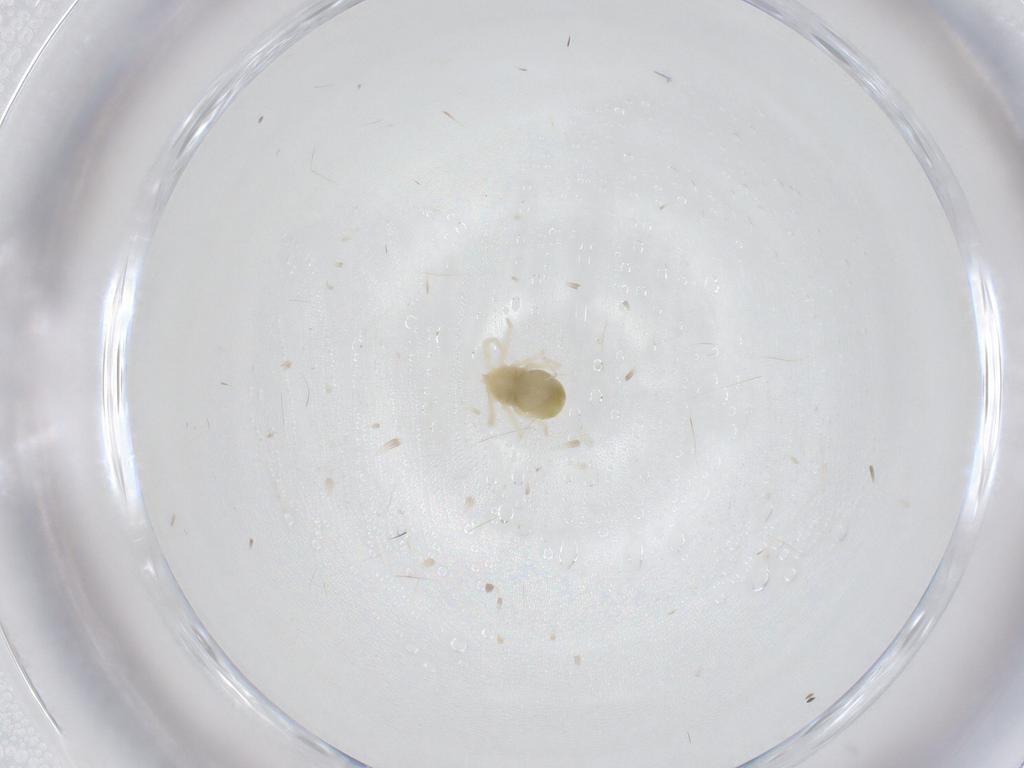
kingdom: Animalia
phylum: Arthropoda
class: Arachnida
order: Trombidiformes
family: Anystidae
